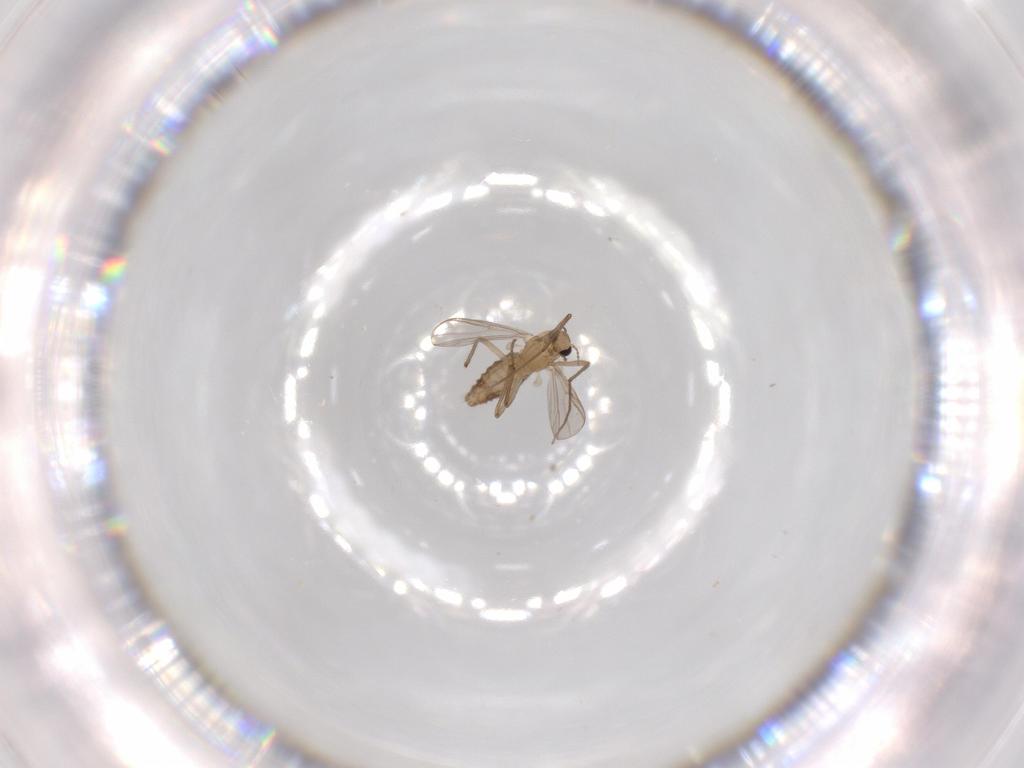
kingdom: Animalia
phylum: Arthropoda
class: Insecta
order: Diptera
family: Chironomidae
